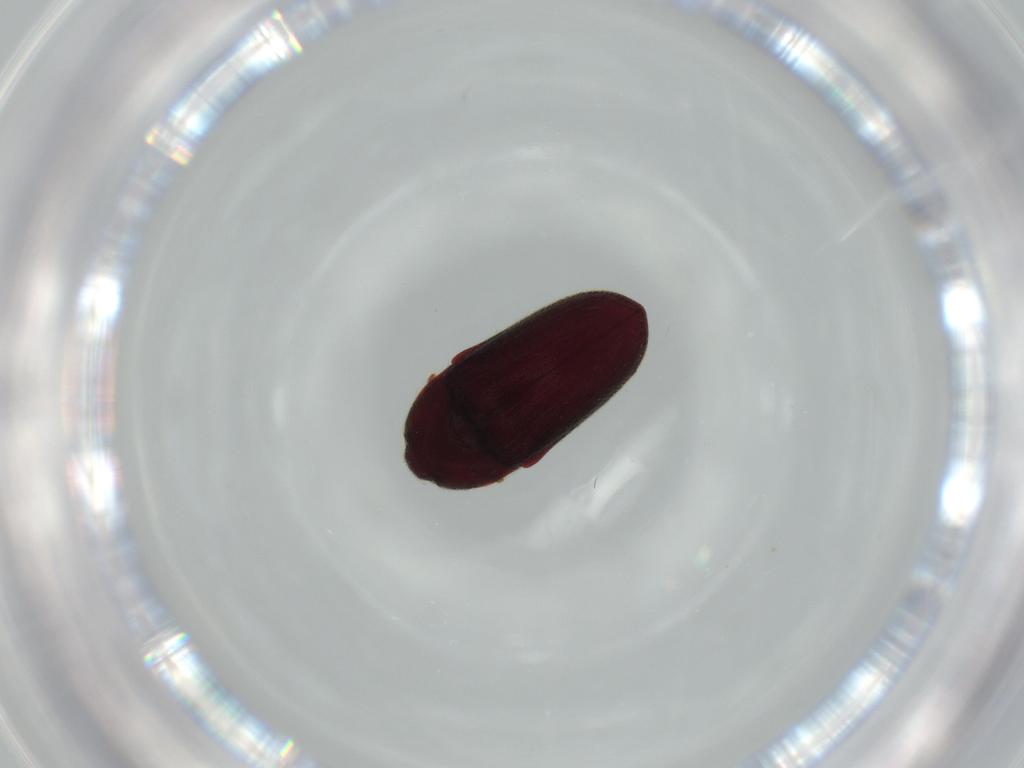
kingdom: Animalia
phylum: Arthropoda
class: Insecta
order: Coleoptera
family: Throscidae
